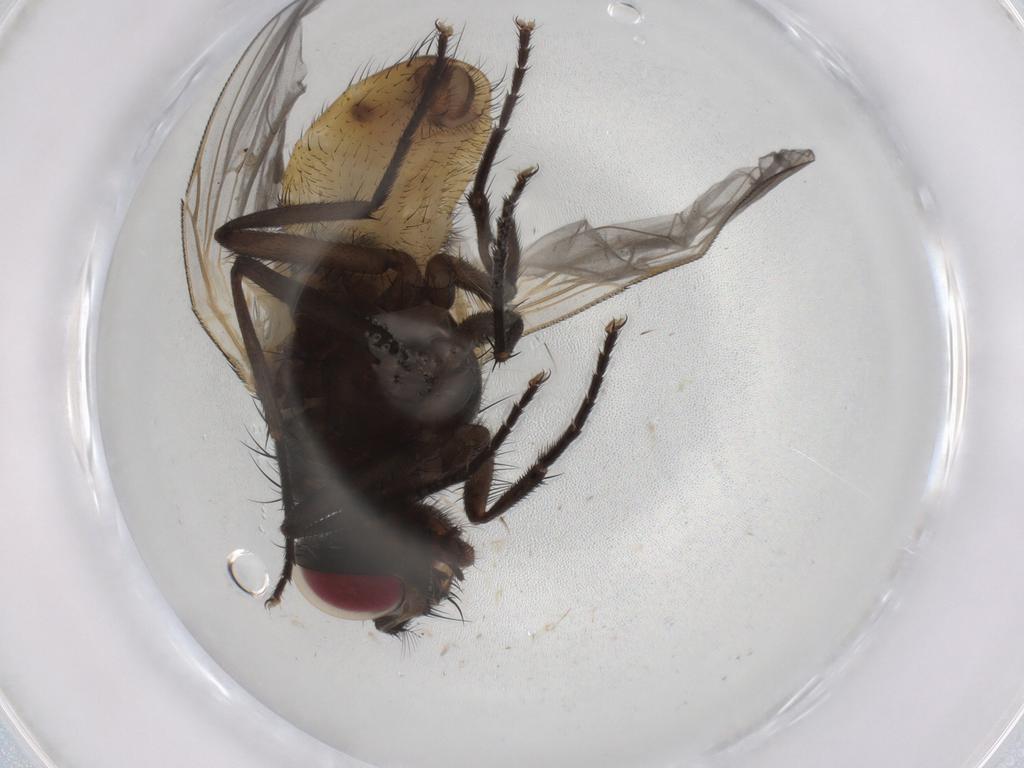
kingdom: Animalia
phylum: Arthropoda
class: Insecta
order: Diptera
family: Muscidae
